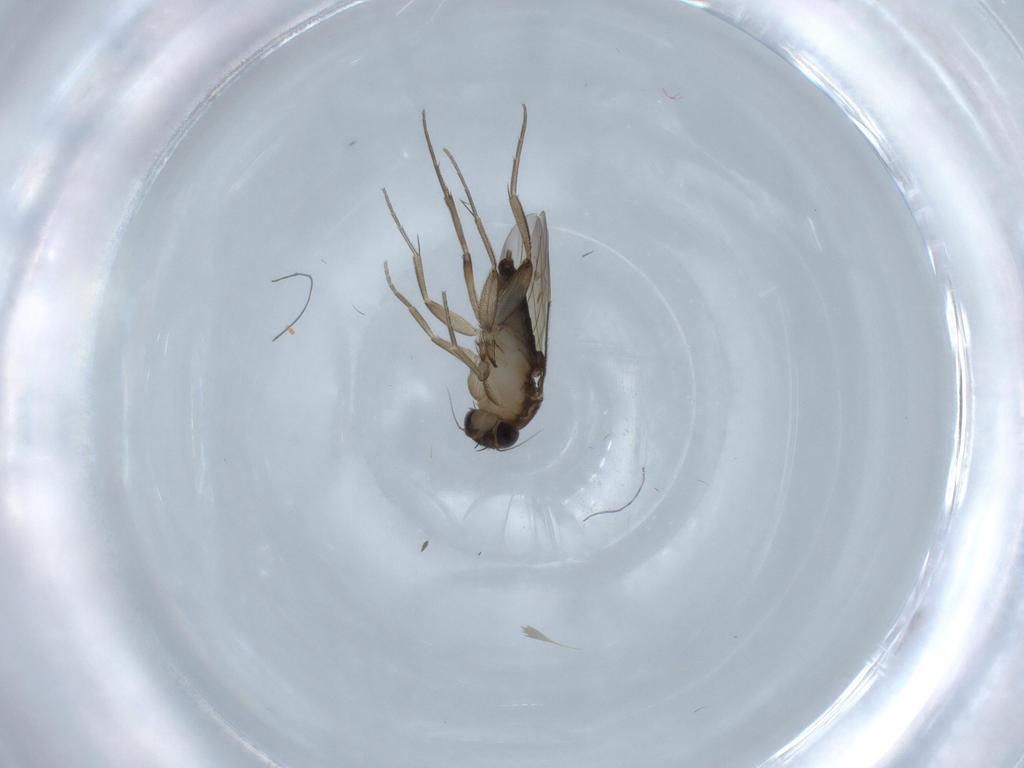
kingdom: Animalia
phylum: Arthropoda
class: Insecta
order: Diptera
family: Phoridae
